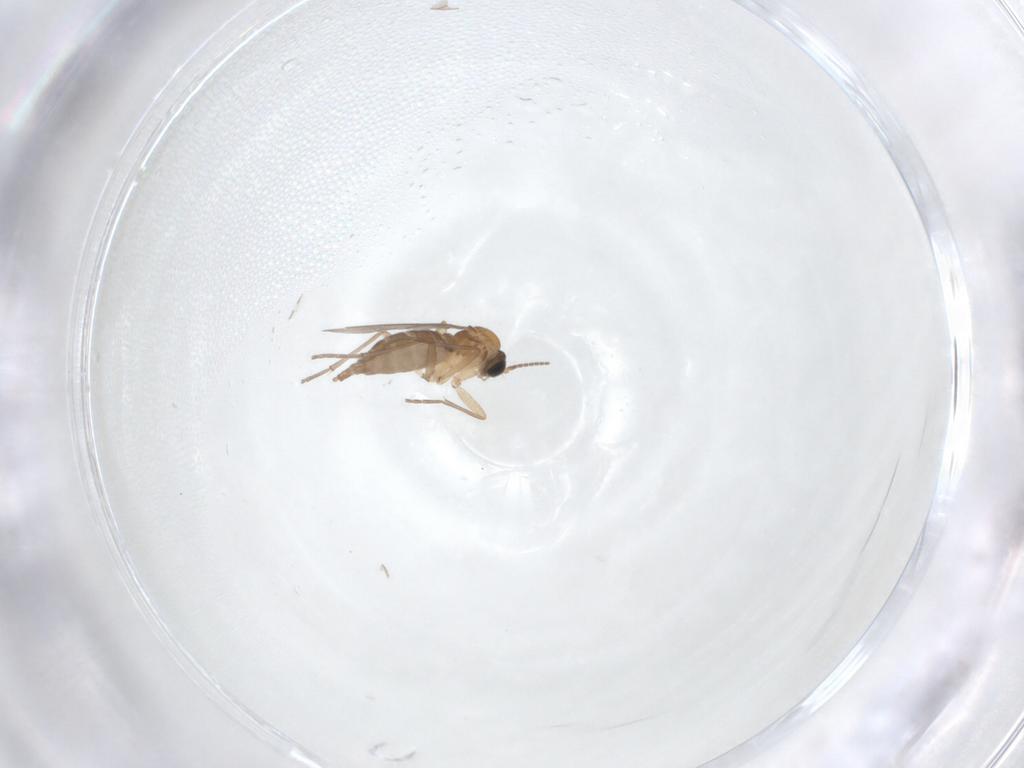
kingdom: Animalia
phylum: Arthropoda
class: Insecta
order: Diptera
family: Sciaridae
